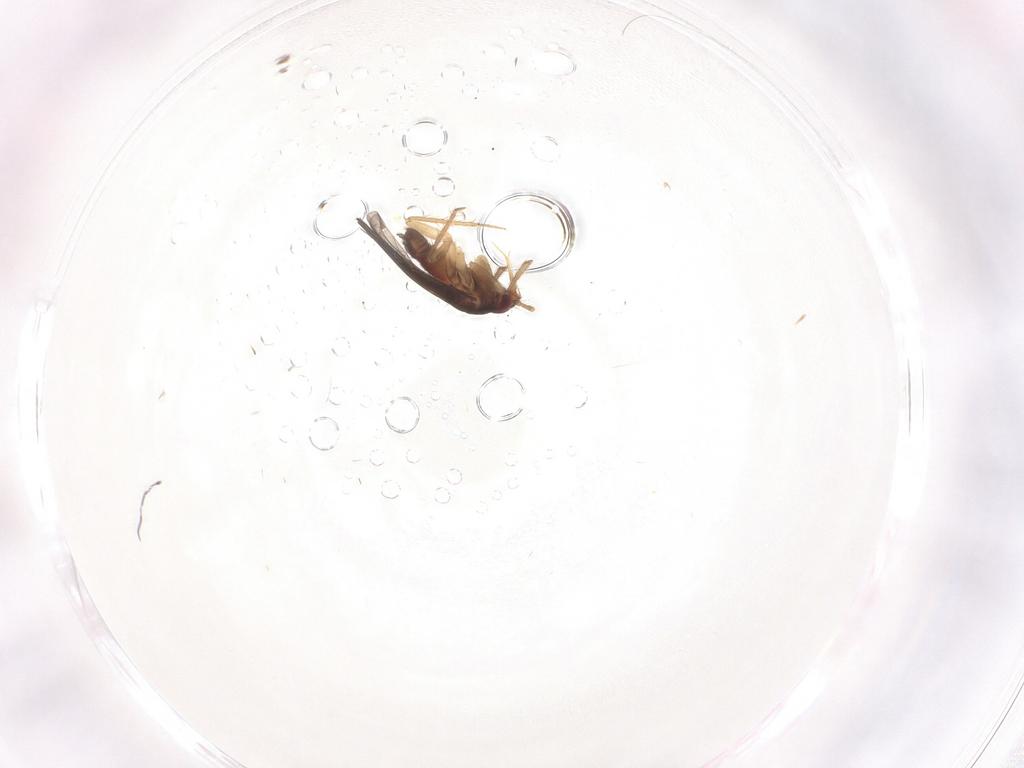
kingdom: Animalia
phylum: Arthropoda
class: Insecta
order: Hemiptera
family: Ceratocombidae
